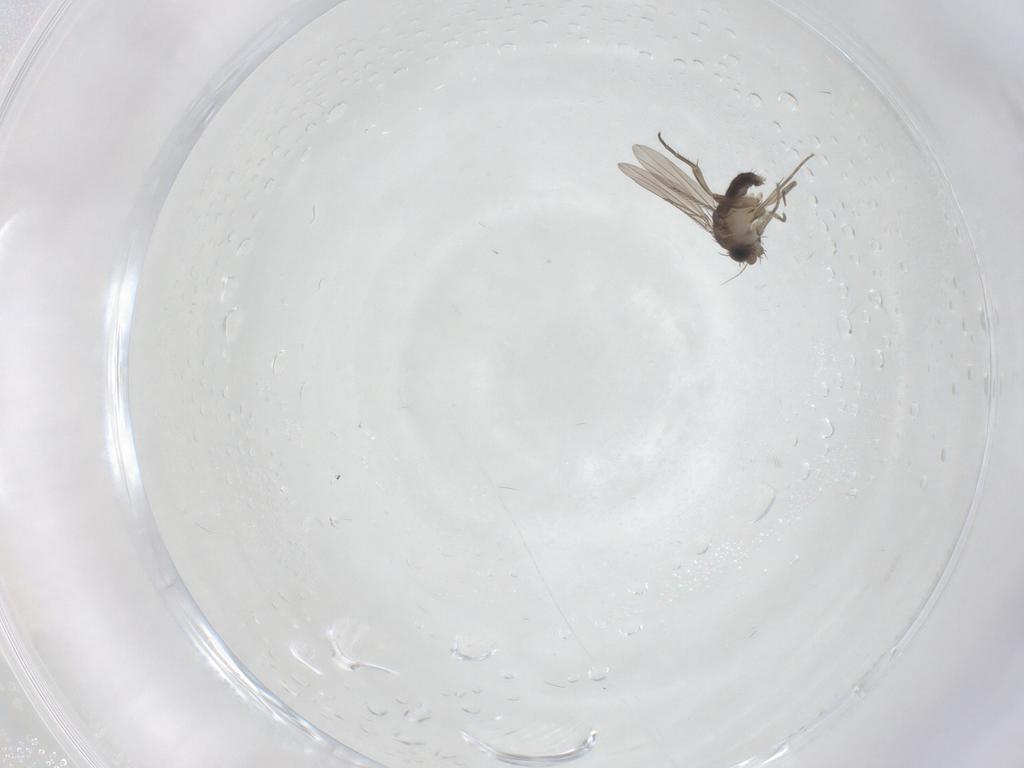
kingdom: Animalia
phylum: Arthropoda
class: Insecta
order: Diptera
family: Phoridae
